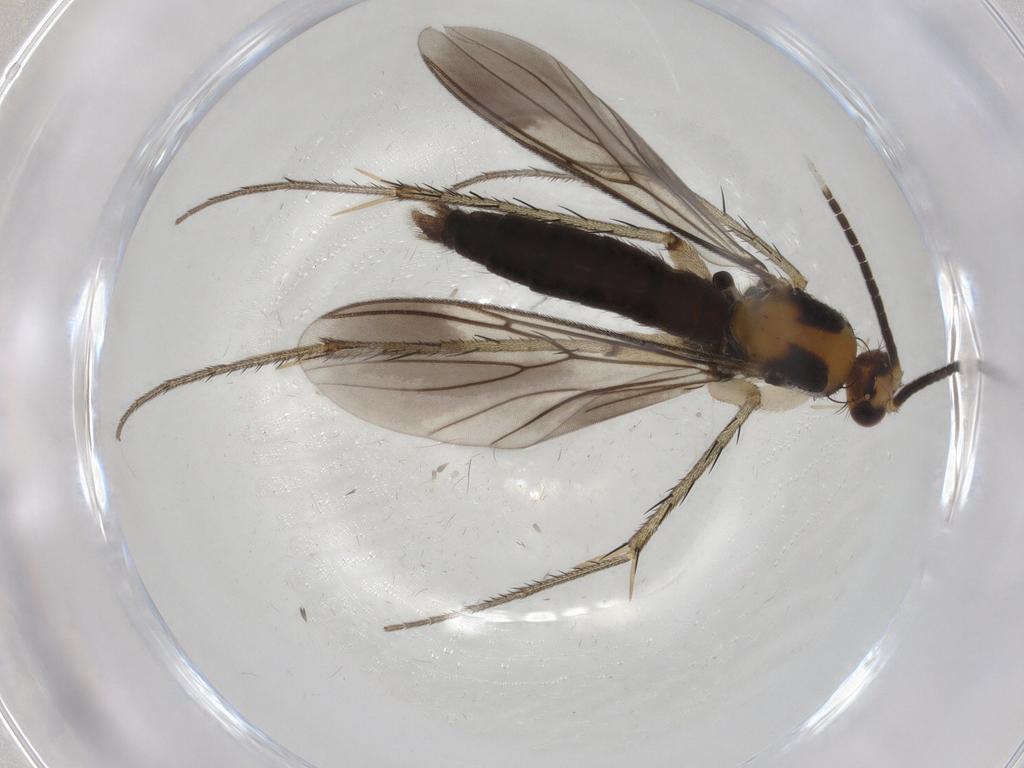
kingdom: Animalia
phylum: Arthropoda
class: Insecta
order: Diptera
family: Chironomidae
